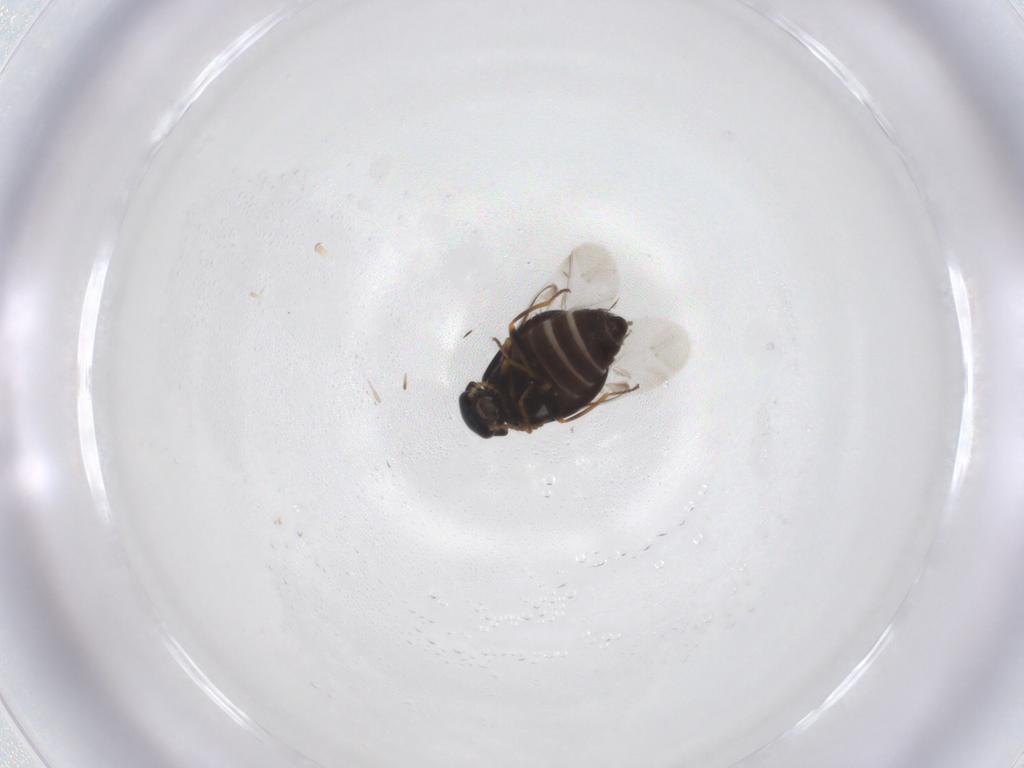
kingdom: Animalia
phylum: Arthropoda
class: Insecta
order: Coleoptera
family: Melyridae
